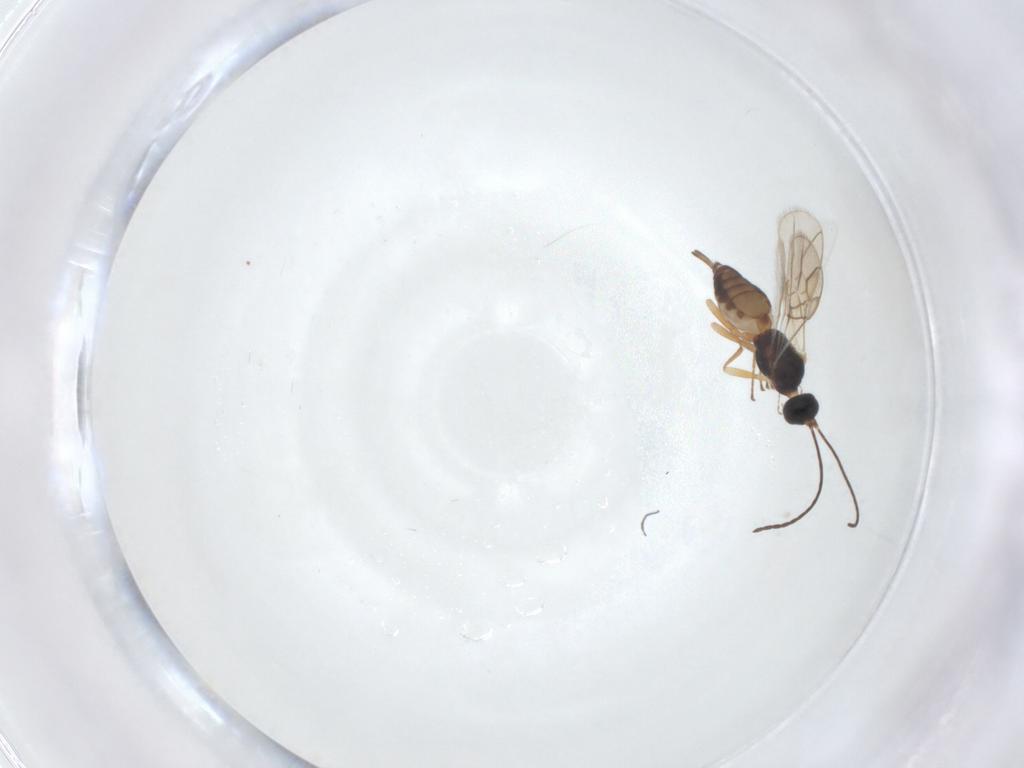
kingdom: Animalia
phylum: Arthropoda
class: Insecta
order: Hymenoptera
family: Braconidae
